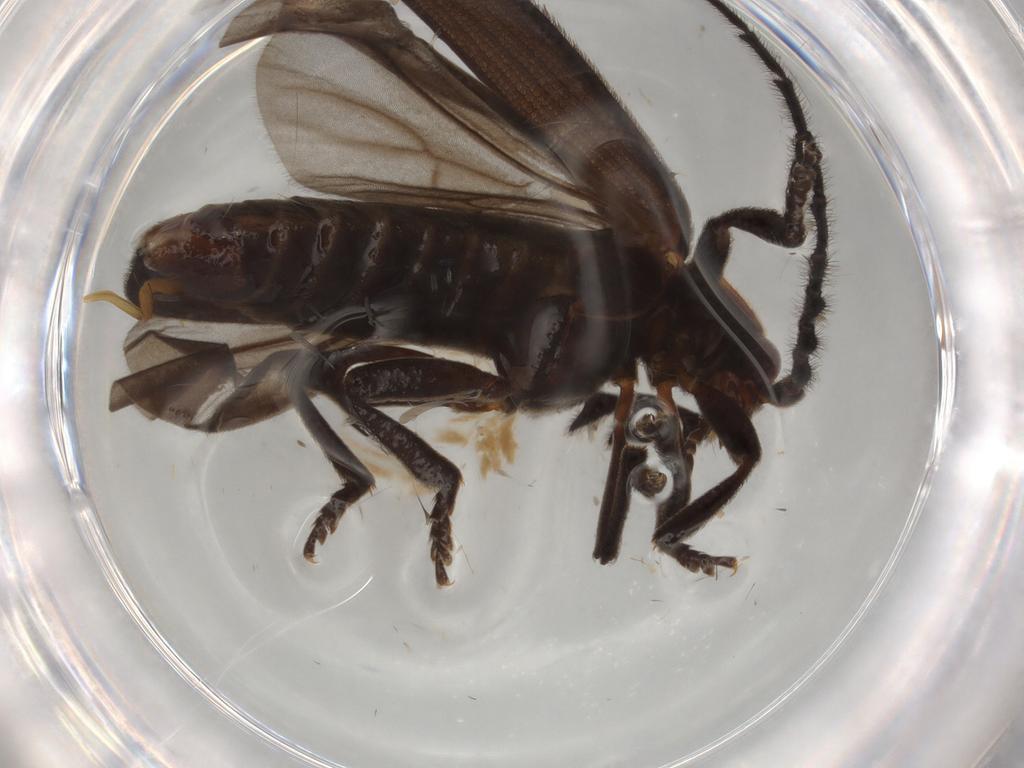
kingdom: Animalia
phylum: Arthropoda
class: Insecta
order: Coleoptera
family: Lycidae
